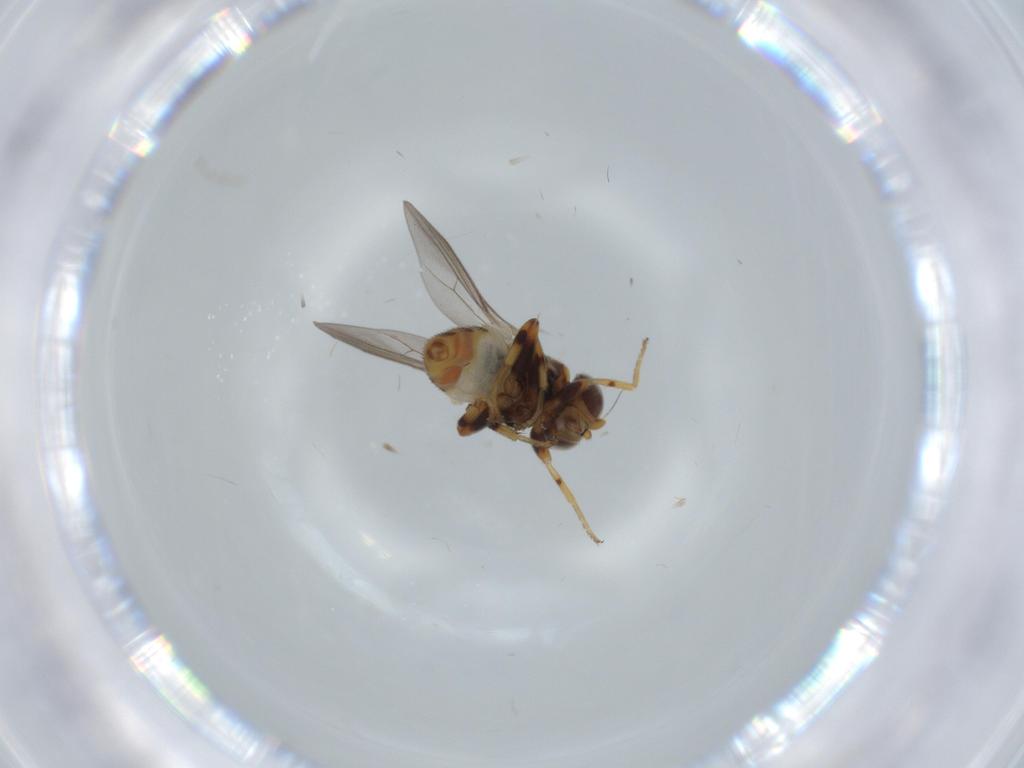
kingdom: Animalia
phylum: Arthropoda
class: Insecta
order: Diptera
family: Chloropidae
